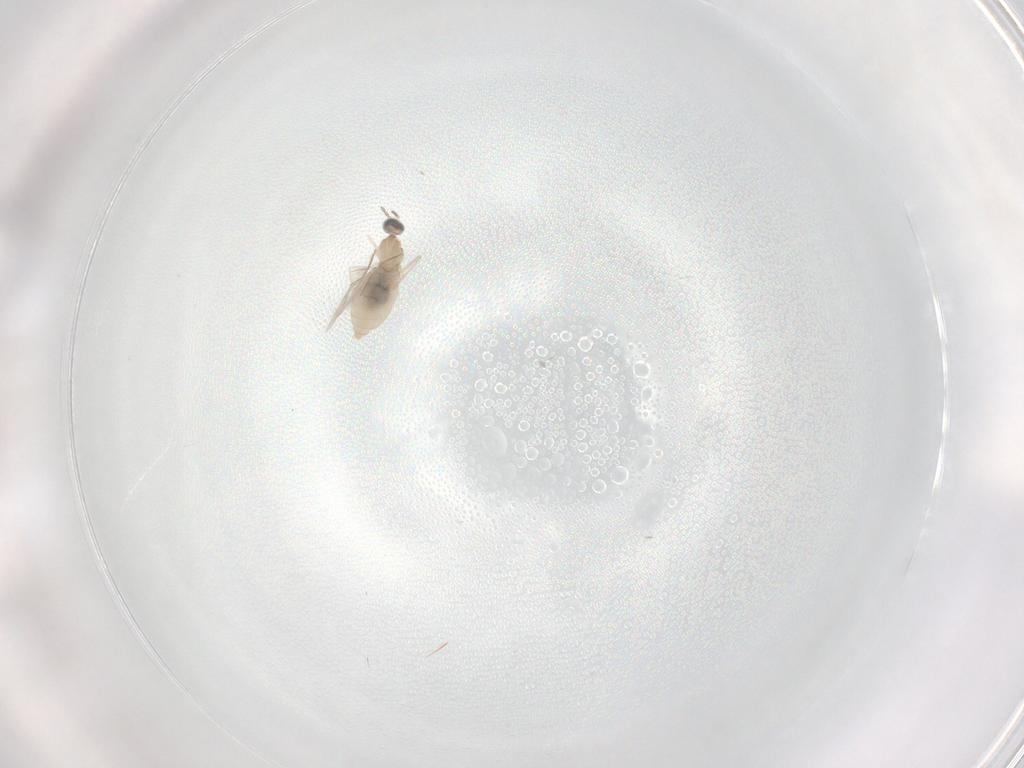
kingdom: Animalia
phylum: Arthropoda
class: Insecta
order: Diptera
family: Cecidomyiidae
